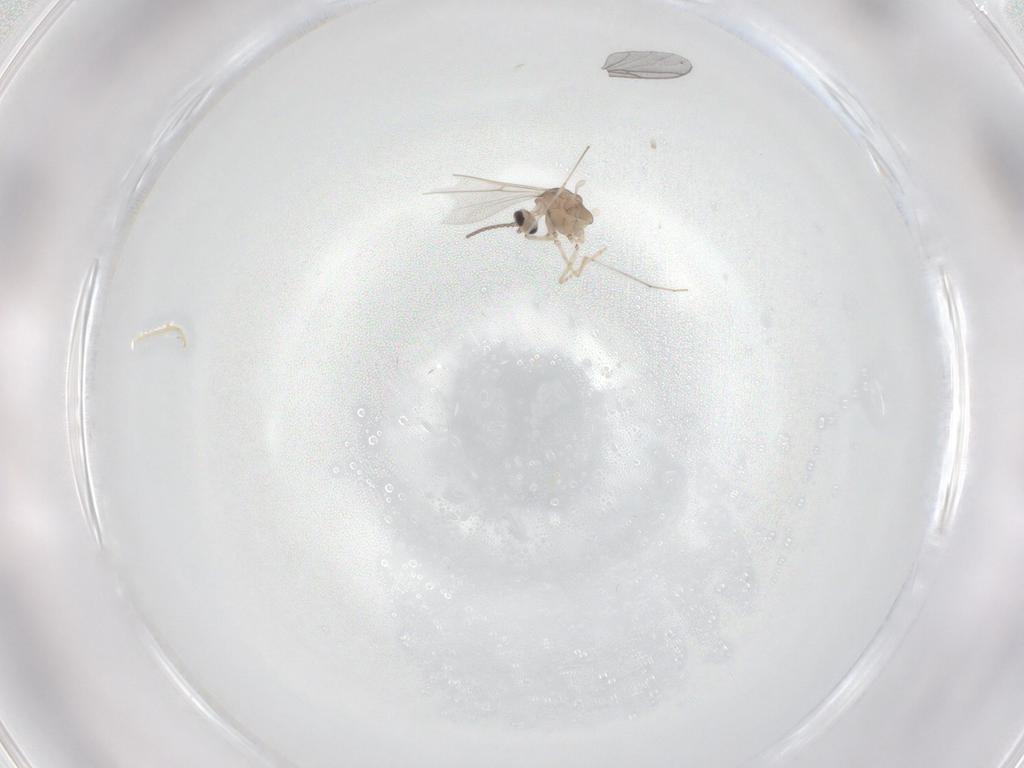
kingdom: Animalia
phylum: Arthropoda
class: Insecta
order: Diptera
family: Cecidomyiidae
